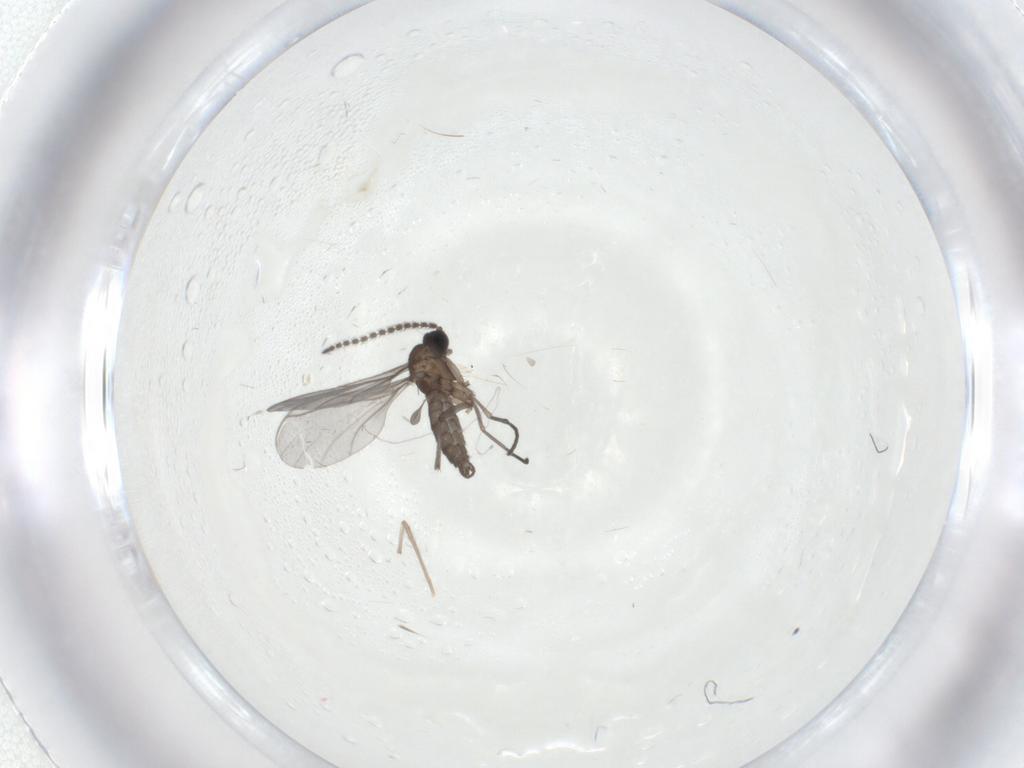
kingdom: Animalia
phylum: Arthropoda
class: Insecta
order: Diptera
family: Sciaridae
